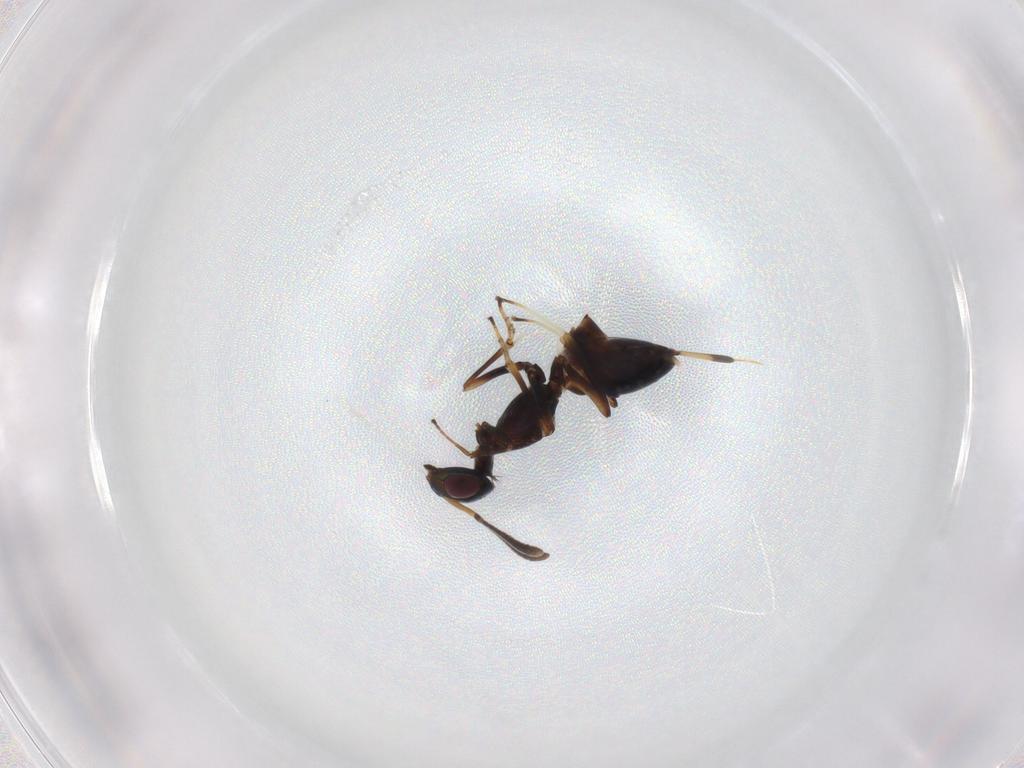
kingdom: Animalia
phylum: Arthropoda
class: Insecta
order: Hymenoptera
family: Eupelmidae
